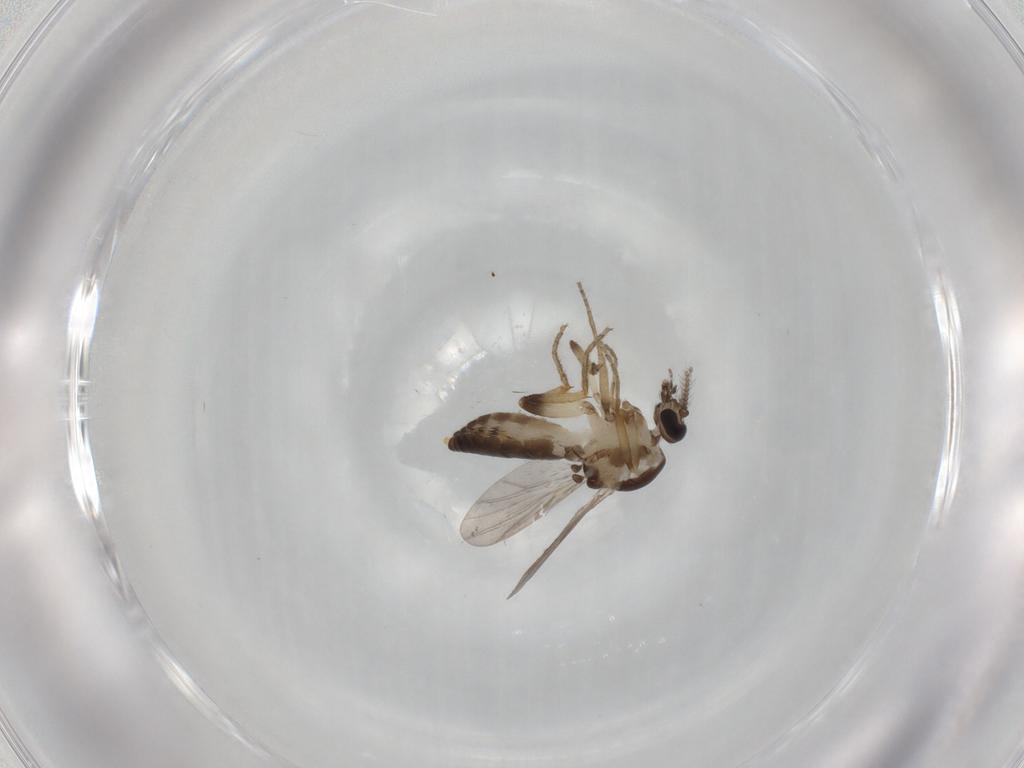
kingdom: Animalia
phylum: Arthropoda
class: Insecta
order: Diptera
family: Ceratopogonidae
